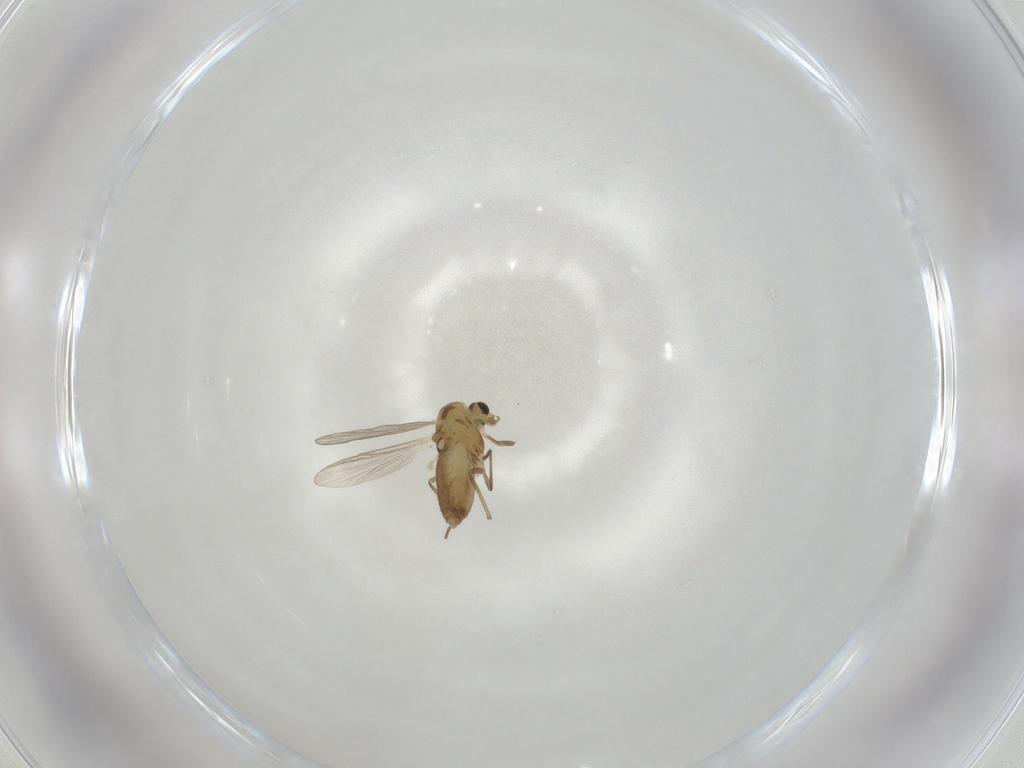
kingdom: Animalia
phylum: Arthropoda
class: Insecta
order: Diptera
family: Chironomidae
